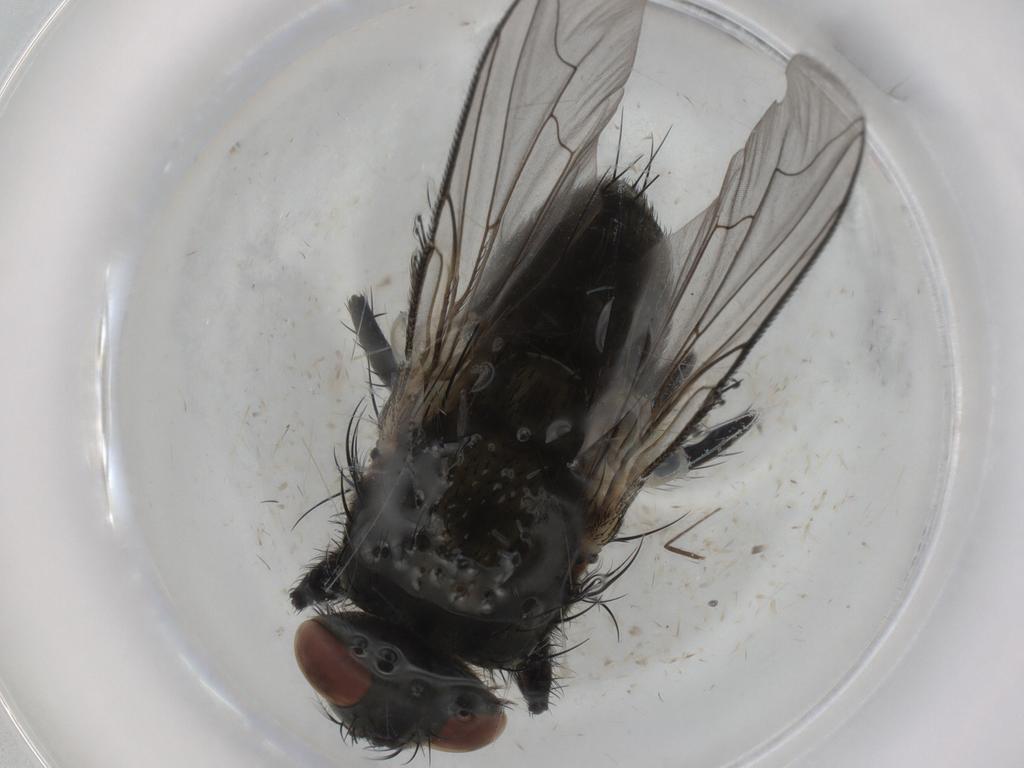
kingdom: Animalia
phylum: Arthropoda
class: Insecta
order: Diptera
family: Sarcophagidae
